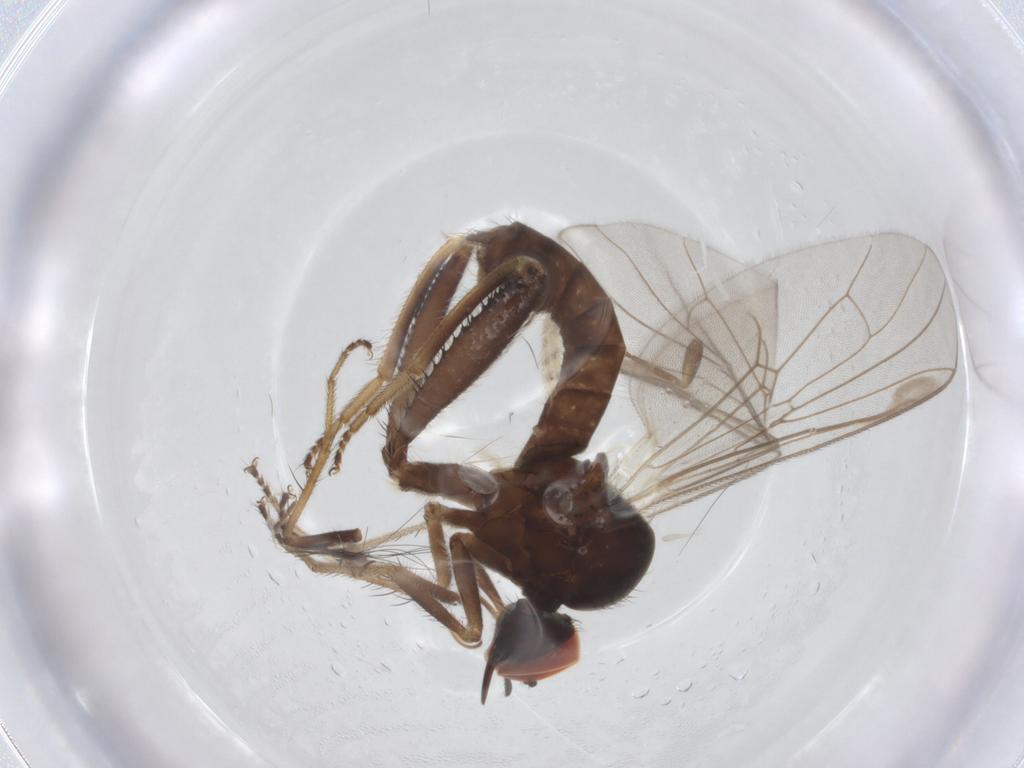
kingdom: Animalia
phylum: Arthropoda
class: Insecta
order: Diptera
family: Hybotidae
